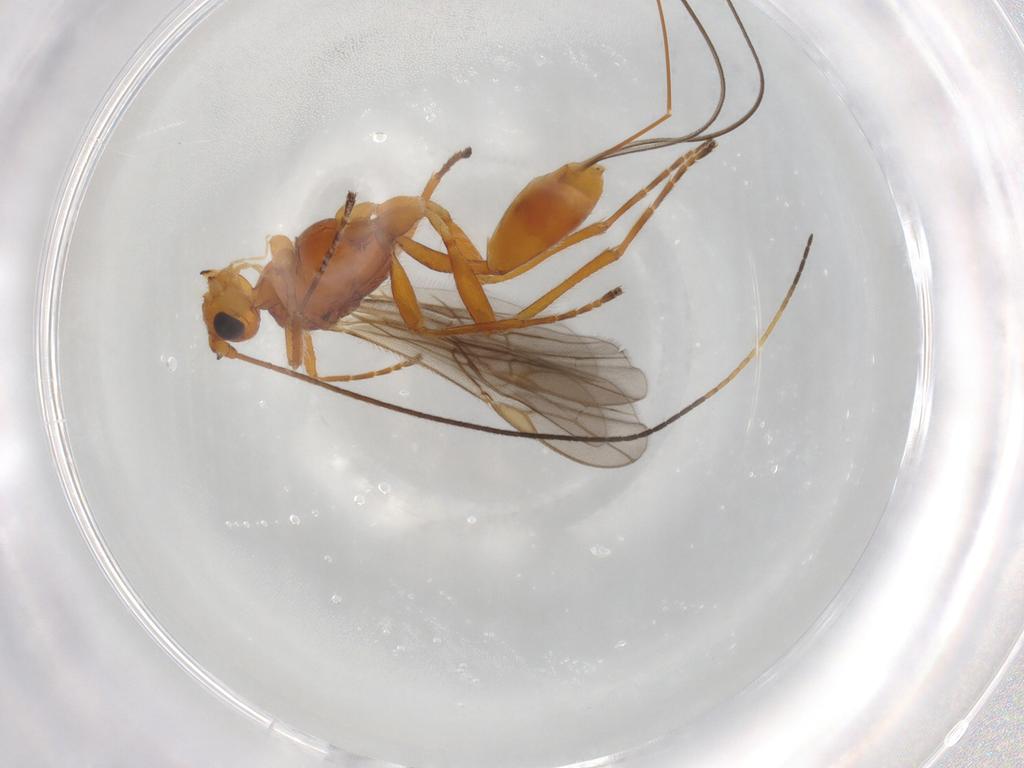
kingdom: Animalia
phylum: Arthropoda
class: Insecta
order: Hymenoptera
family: Braconidae
